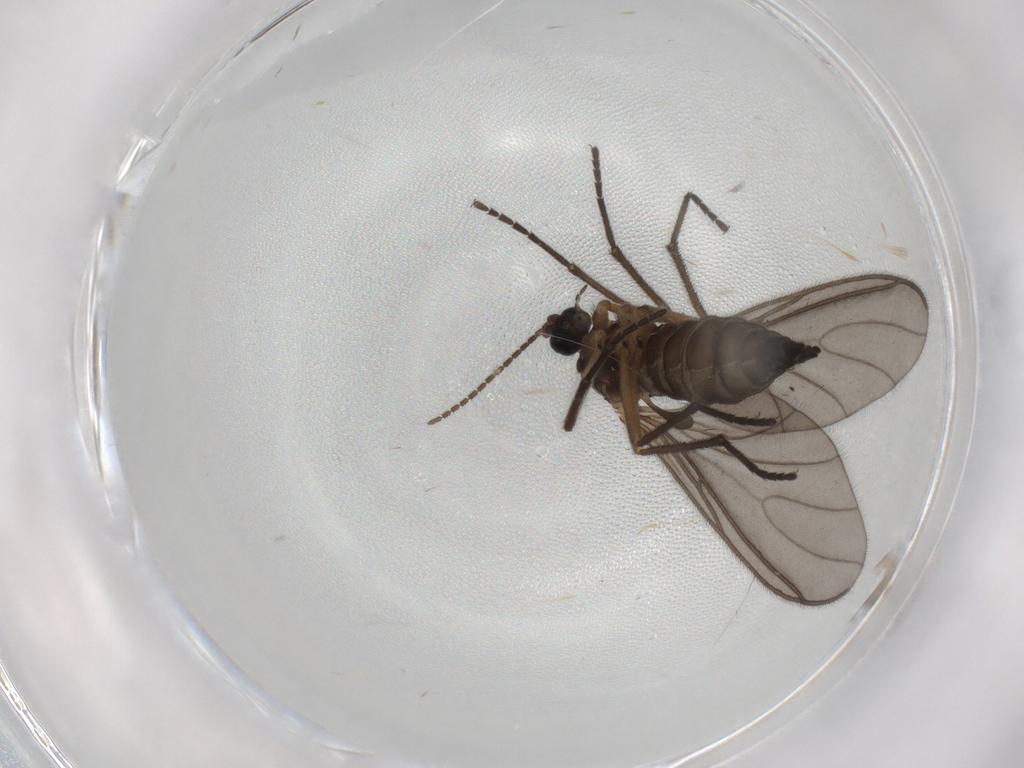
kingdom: Animalia
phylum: Arthropoda
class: Insecta
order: Diptera
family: Sciaridae
